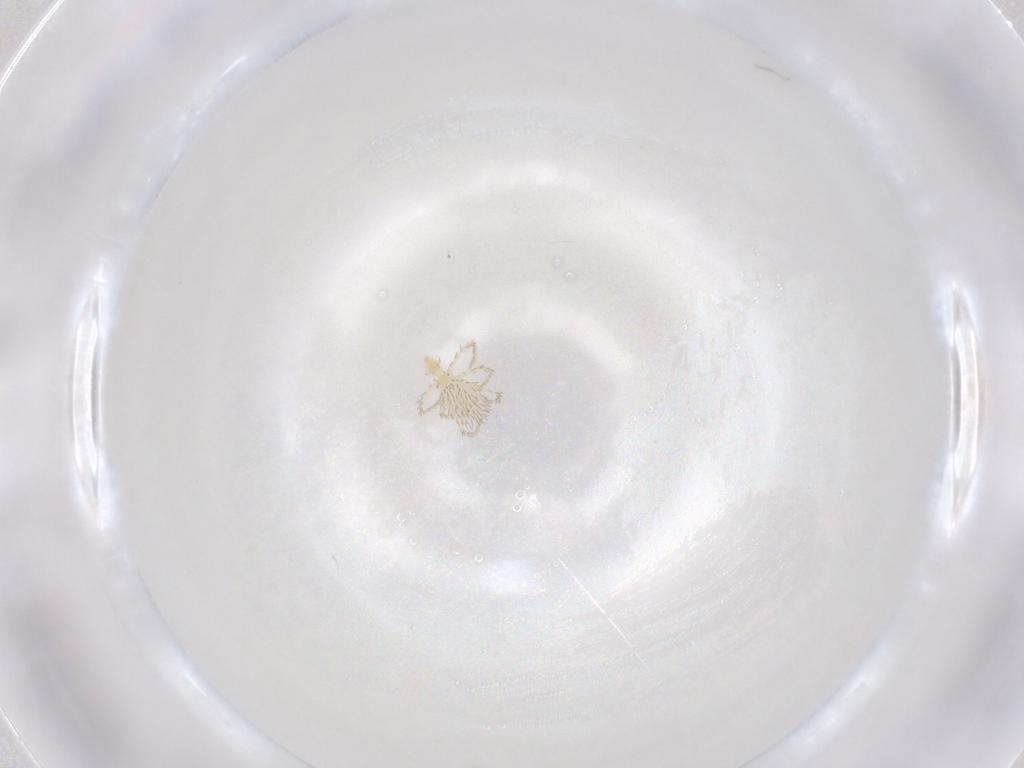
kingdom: Animalia
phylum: Arthropoda
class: Arachnida
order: Trombidiformes
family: Erythraeidae
